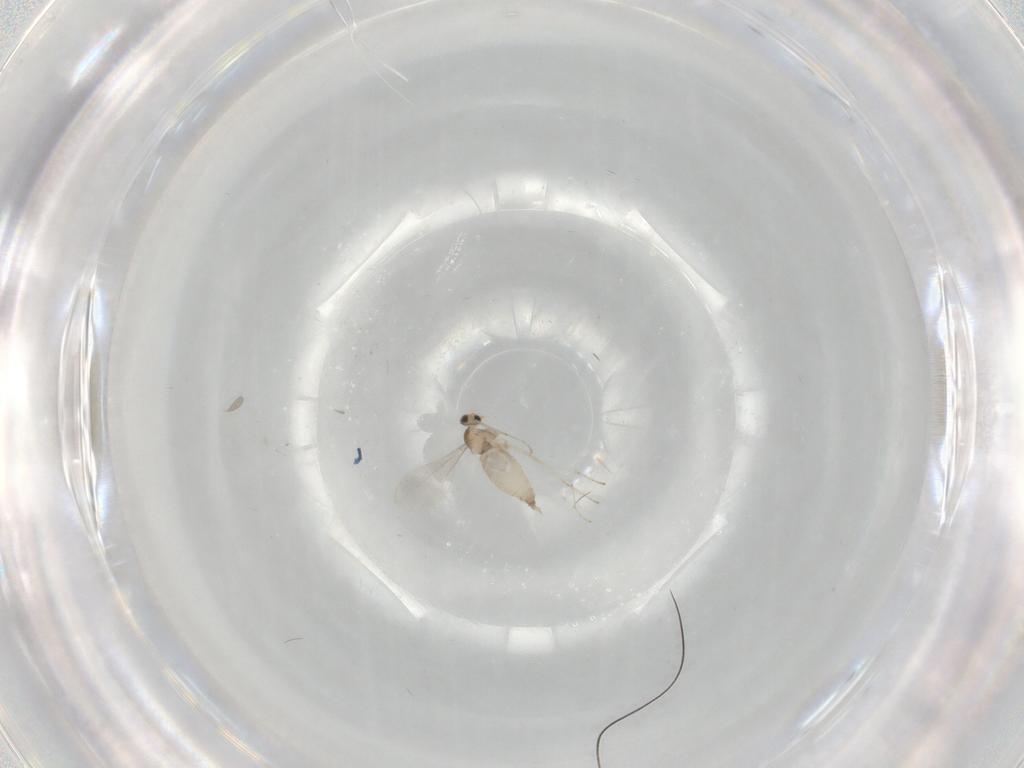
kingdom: Animalia
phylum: Arthropoda
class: Insecta
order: Diptera
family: Cecidomyiidae
